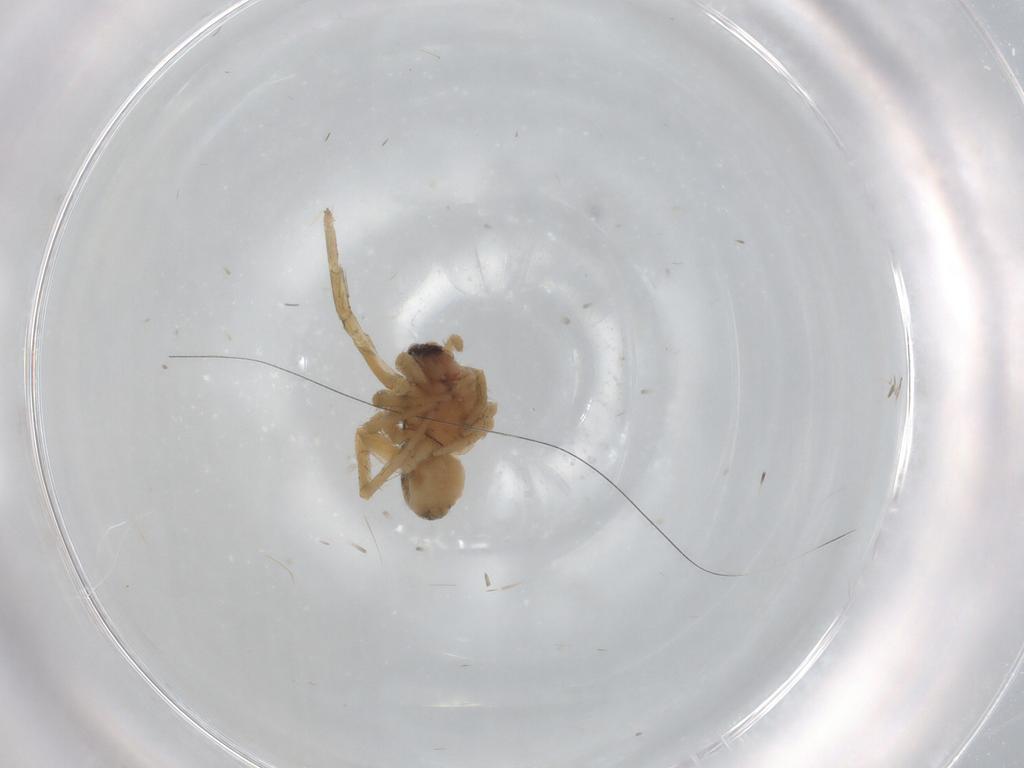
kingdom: Animalia
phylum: Arthropoda
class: Arachnida
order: Araneae
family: Lycosidae
